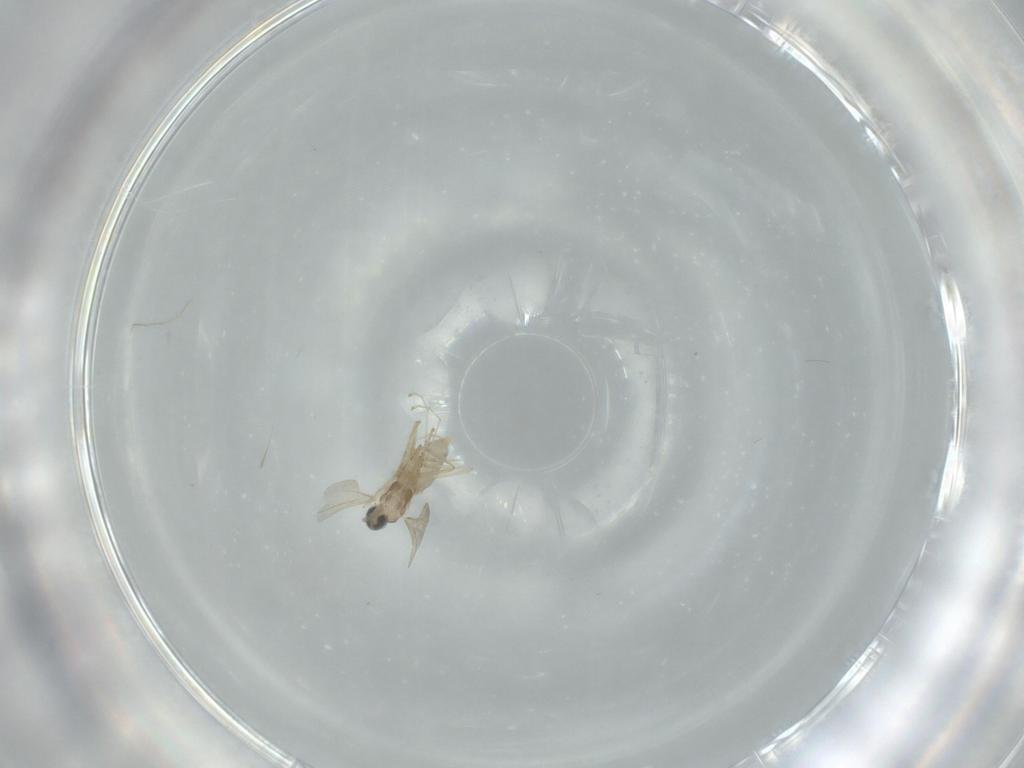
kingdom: Animalia
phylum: Arthropoda
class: Insecta
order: Diptera
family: Cecidomyiidae
